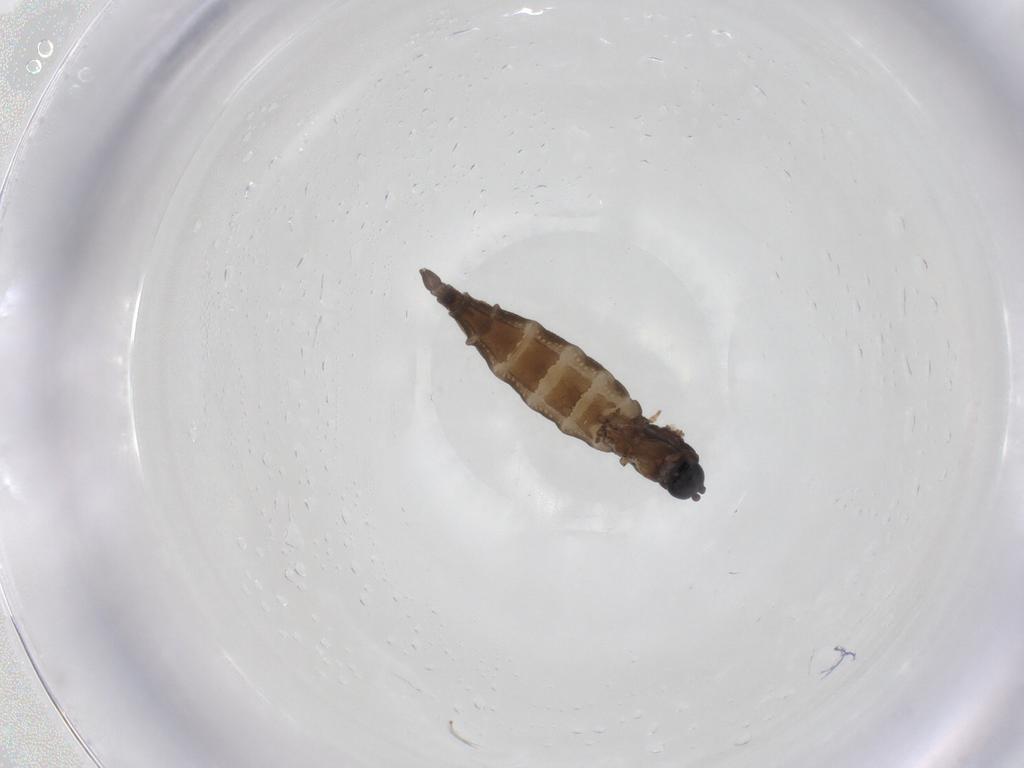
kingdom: Animalia
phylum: Arthropoda
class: Insecta
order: Diptera
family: Sciaridae
